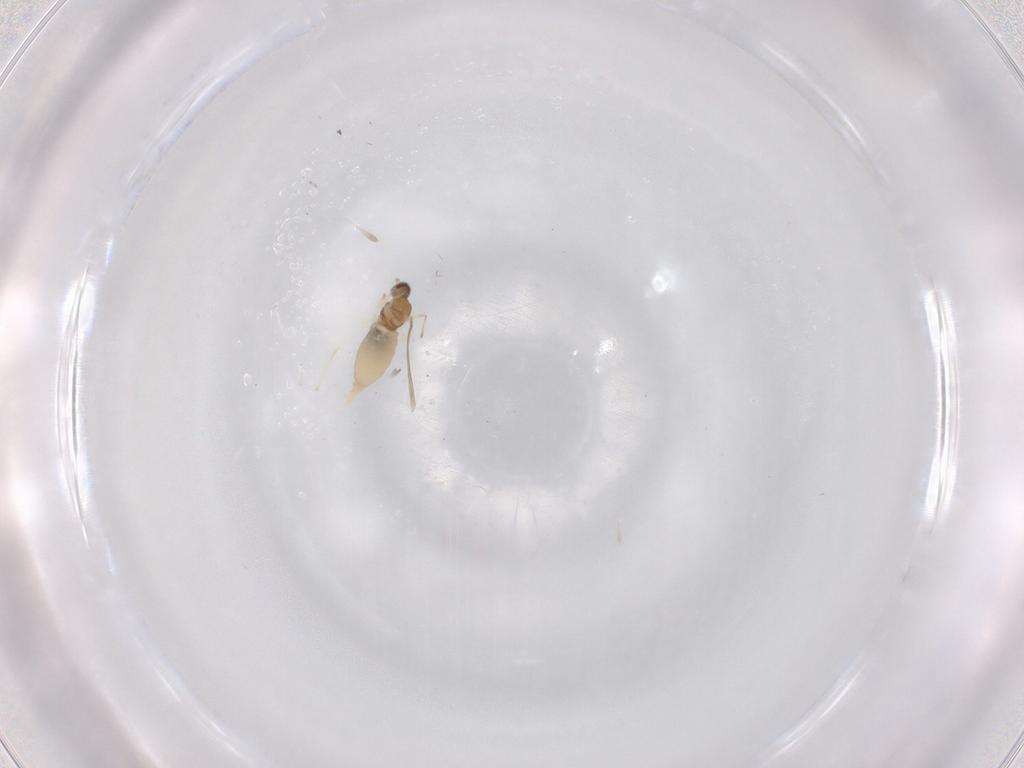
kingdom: Animalia
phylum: Arthropoda
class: Insecta
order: Diptera
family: Cecidomyiidae
